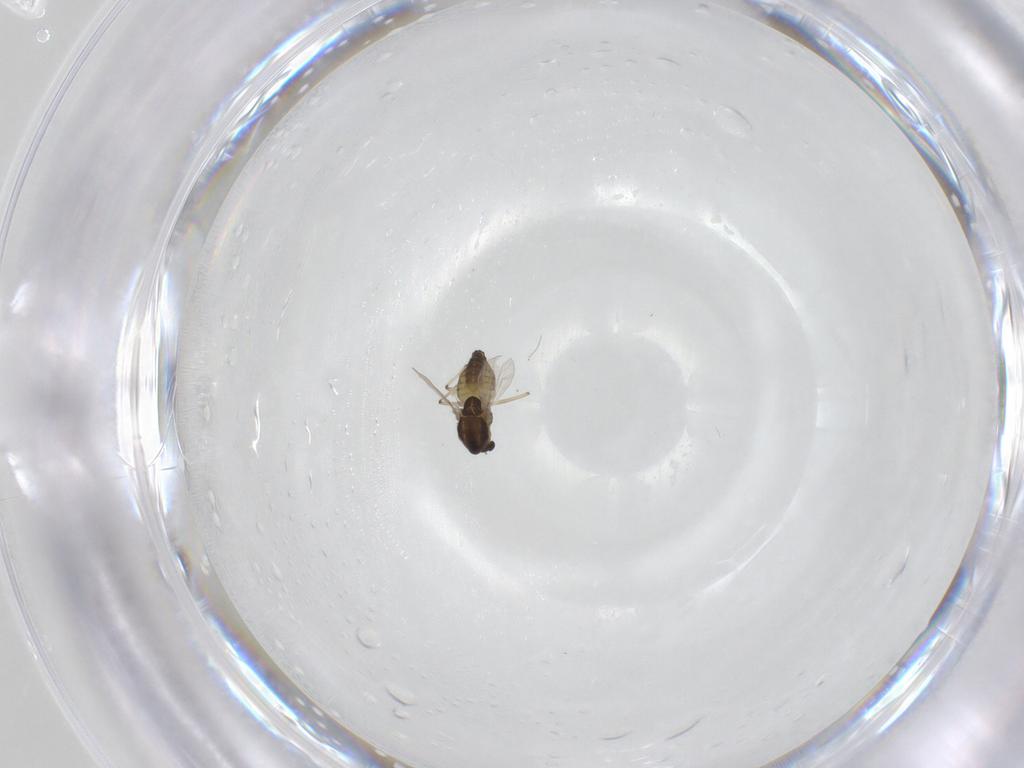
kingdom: Animalia
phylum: Arthropoda
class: Insecta
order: Diptera
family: Chironomidae
